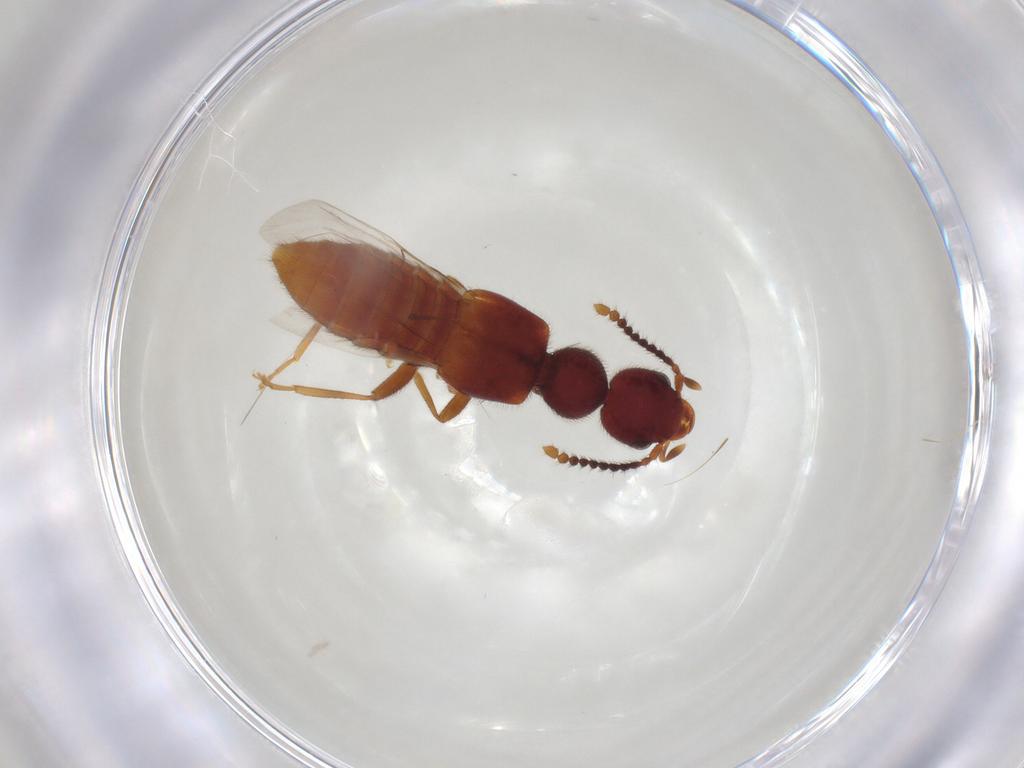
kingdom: Animalia
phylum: Arthropoda
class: Insecta
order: Coleoptera
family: Staphylinidae
